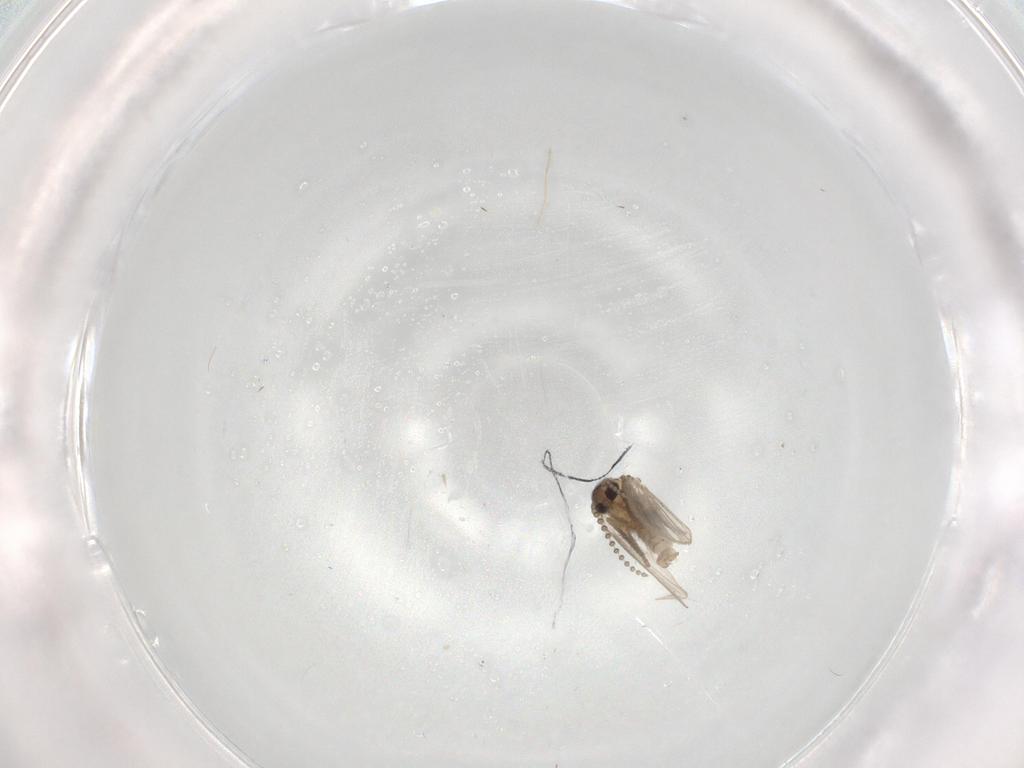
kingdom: Animalia
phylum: Arthropoda
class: Insecta
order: Diptera
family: Psychodidae
